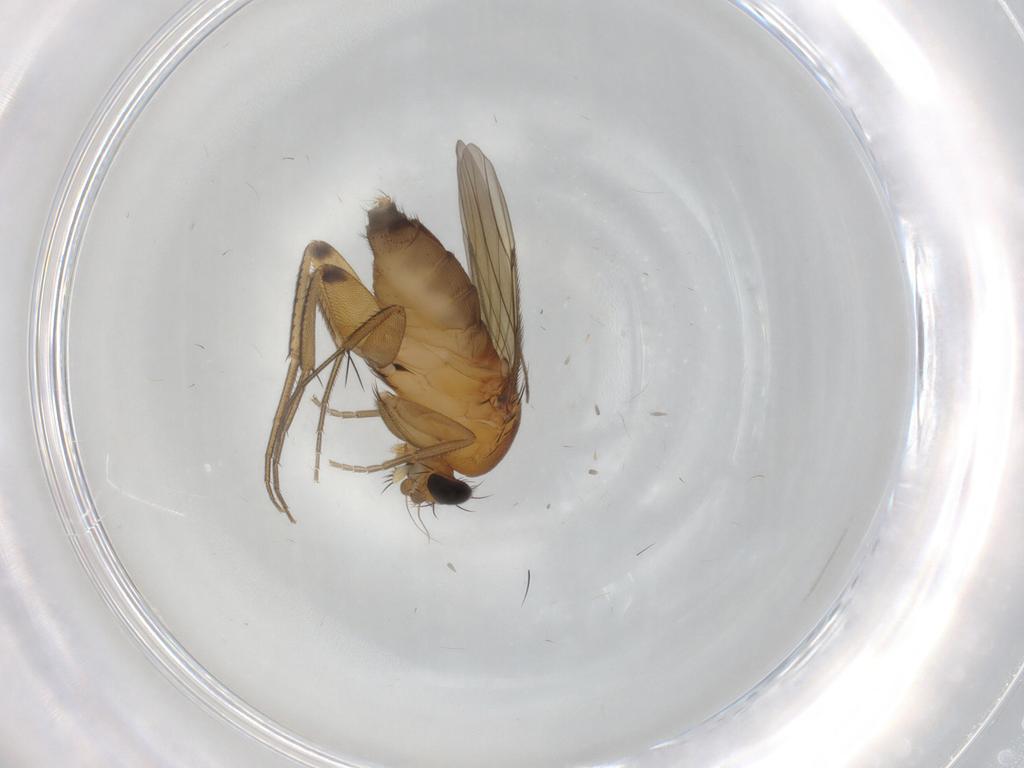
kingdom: Animalia
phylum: Arthropoda
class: Insecta
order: Diptera
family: Phoridae
